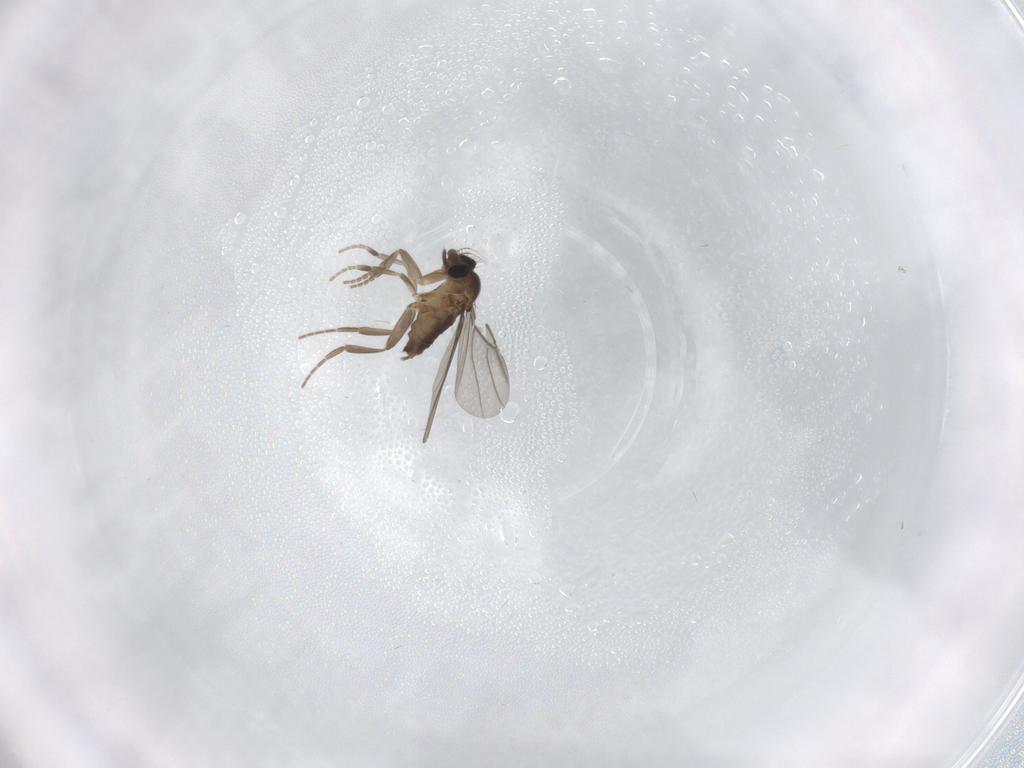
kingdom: Animalia
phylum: Arthropoda
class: Insecta
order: Diptera
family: Phoridae
